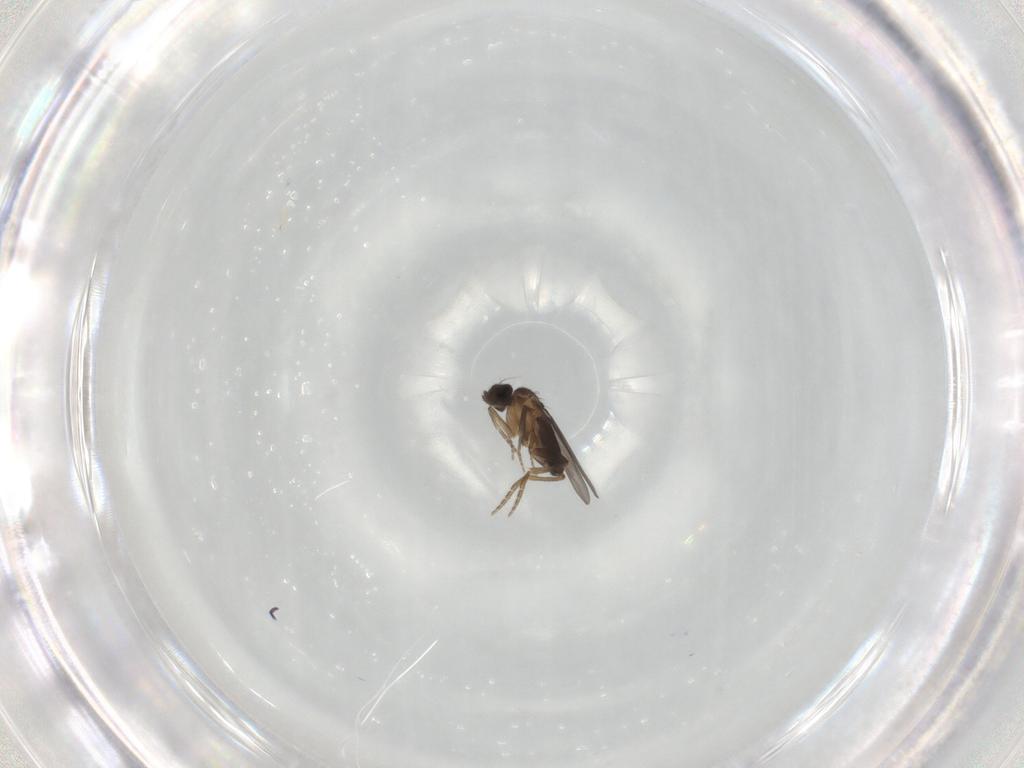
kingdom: Animalia
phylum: Arthropoda
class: Insecta
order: Diptera
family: Phoridae
